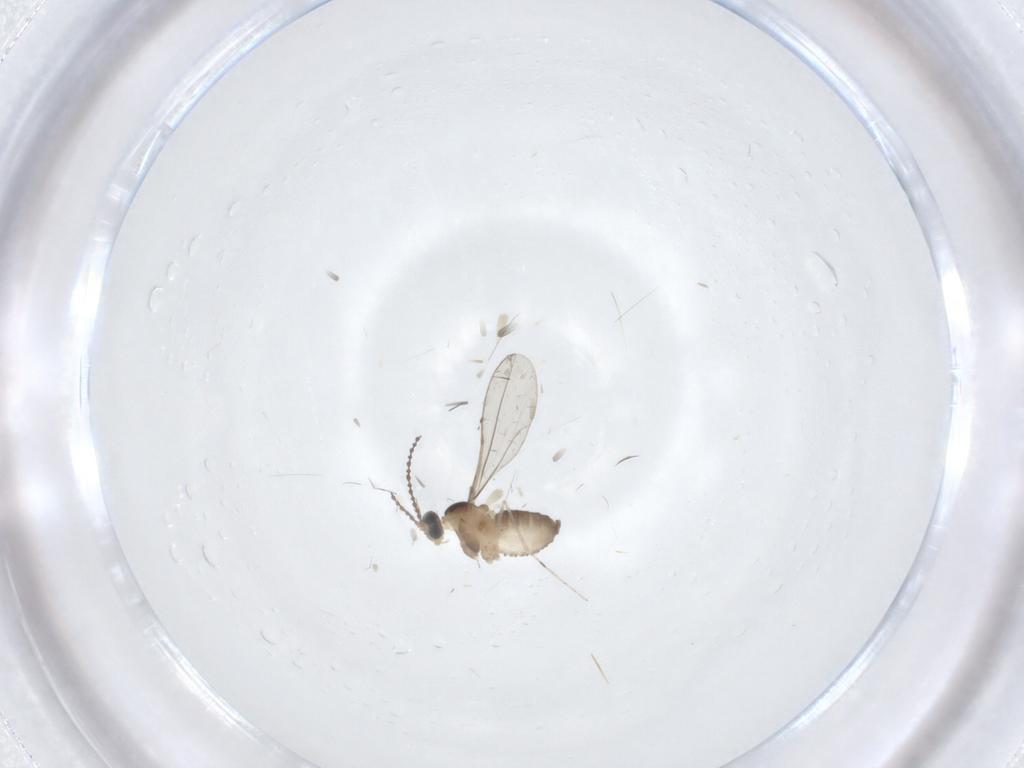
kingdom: Animalia
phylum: Arthropoda
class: Insecta
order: Diptera
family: Cecidomyiidae
